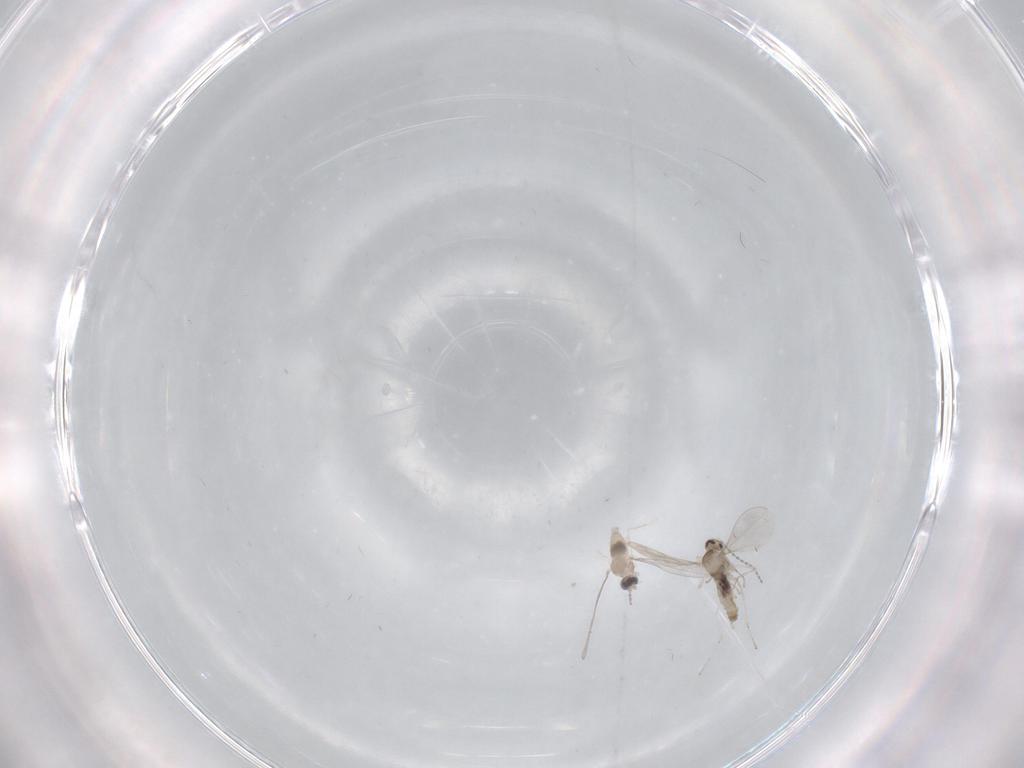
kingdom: Animalia
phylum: Arthropoda
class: Insecta
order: Diptera
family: Cecidomyiidae
